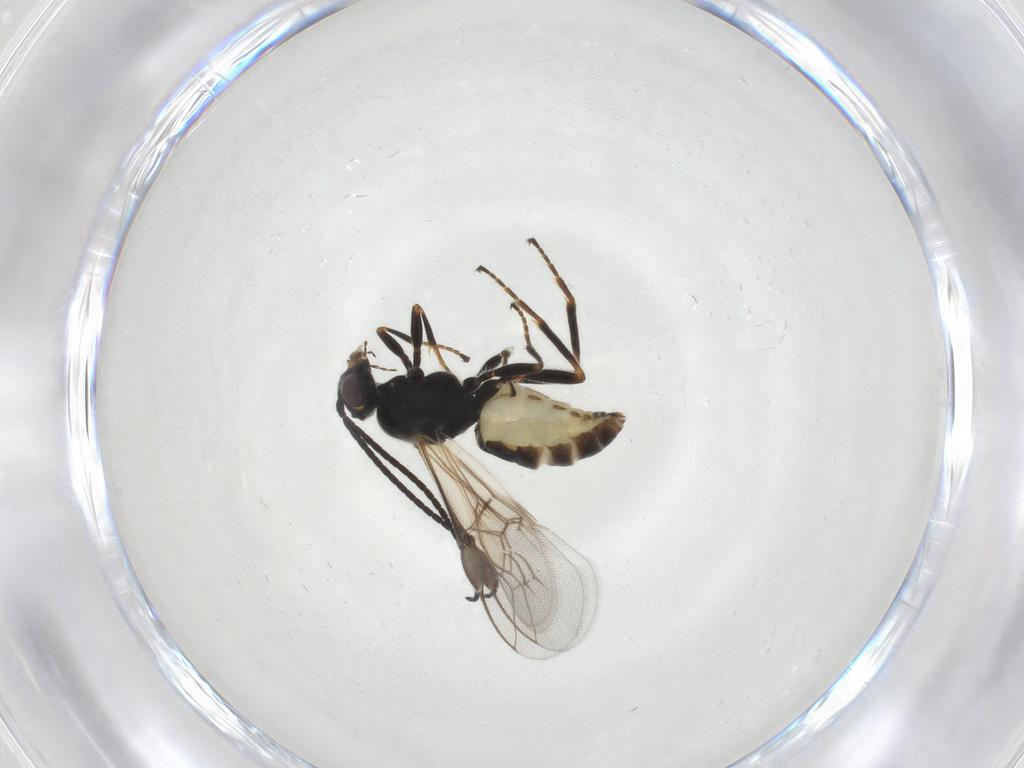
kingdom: Animalia
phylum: Arthropoda
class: Insecta
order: Hymenoptera
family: Braconidae
